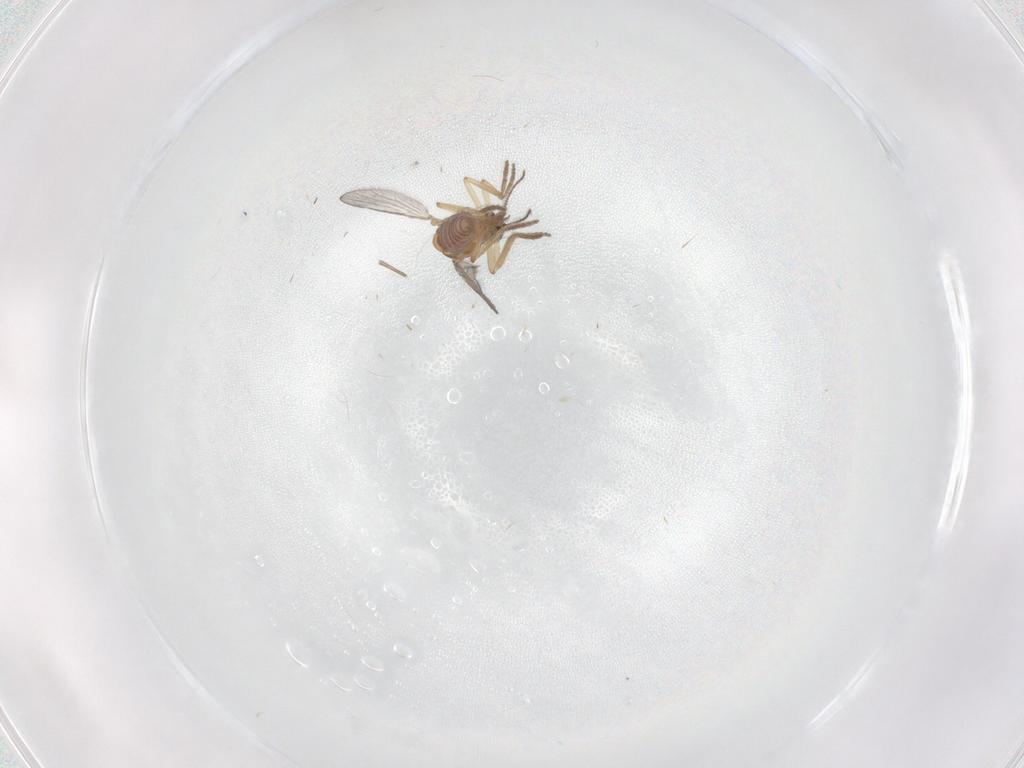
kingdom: Animalia
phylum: Arthropoda
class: Insecta
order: Diptera
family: Ceratopogonidae
